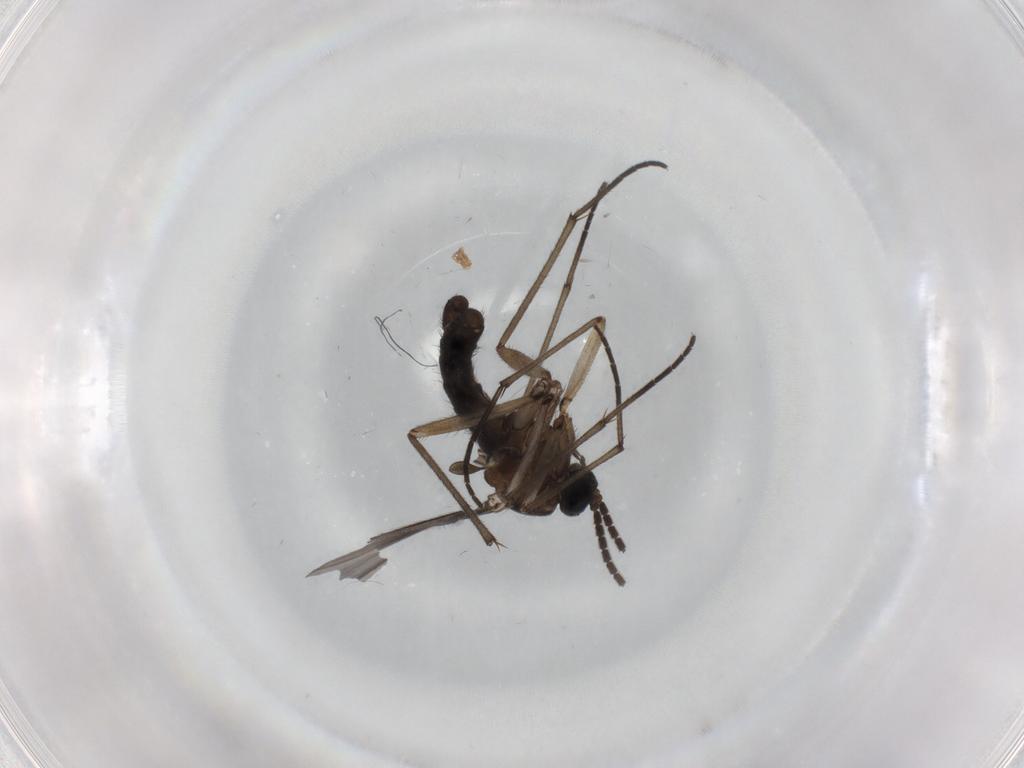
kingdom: Animalia
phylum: Arthropoda
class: Insecta
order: Diptera
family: Sciaridae
